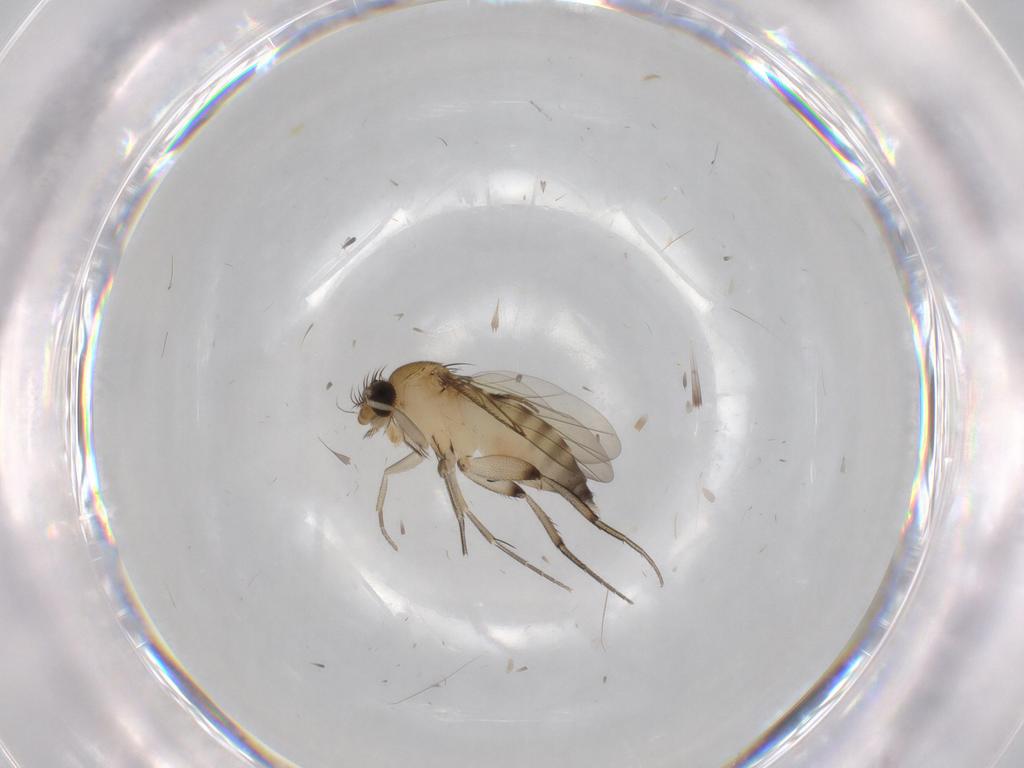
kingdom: Animalia
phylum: Arthropoda
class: Insecta
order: Diptera
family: Phoridae
